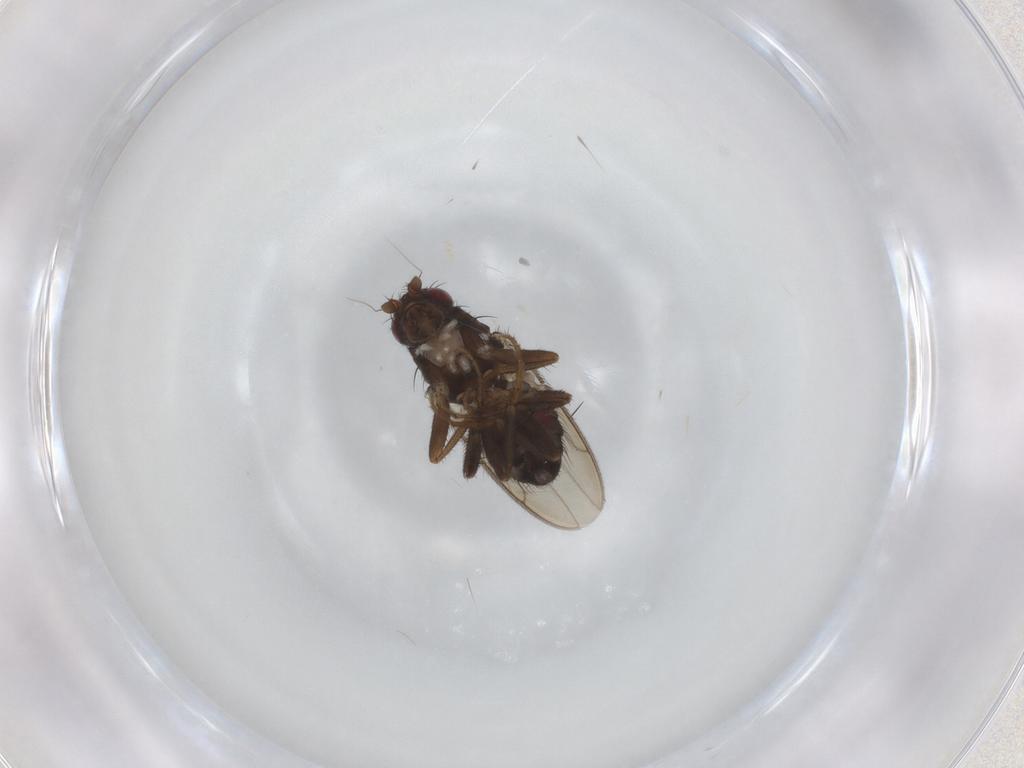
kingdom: Animalia
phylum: Arthropoda
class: Insecta
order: Diptera
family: Sphaeroceridae
